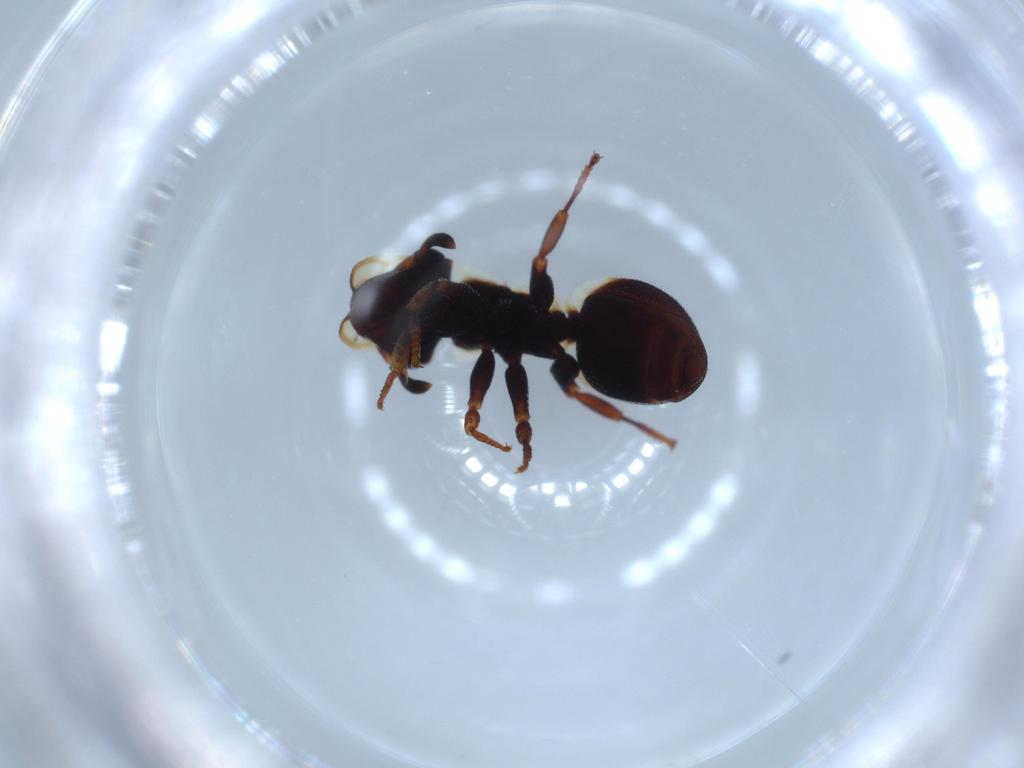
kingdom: Animalia
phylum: Arthropoda
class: Insecta
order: Hymenoptera
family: Formicidae
